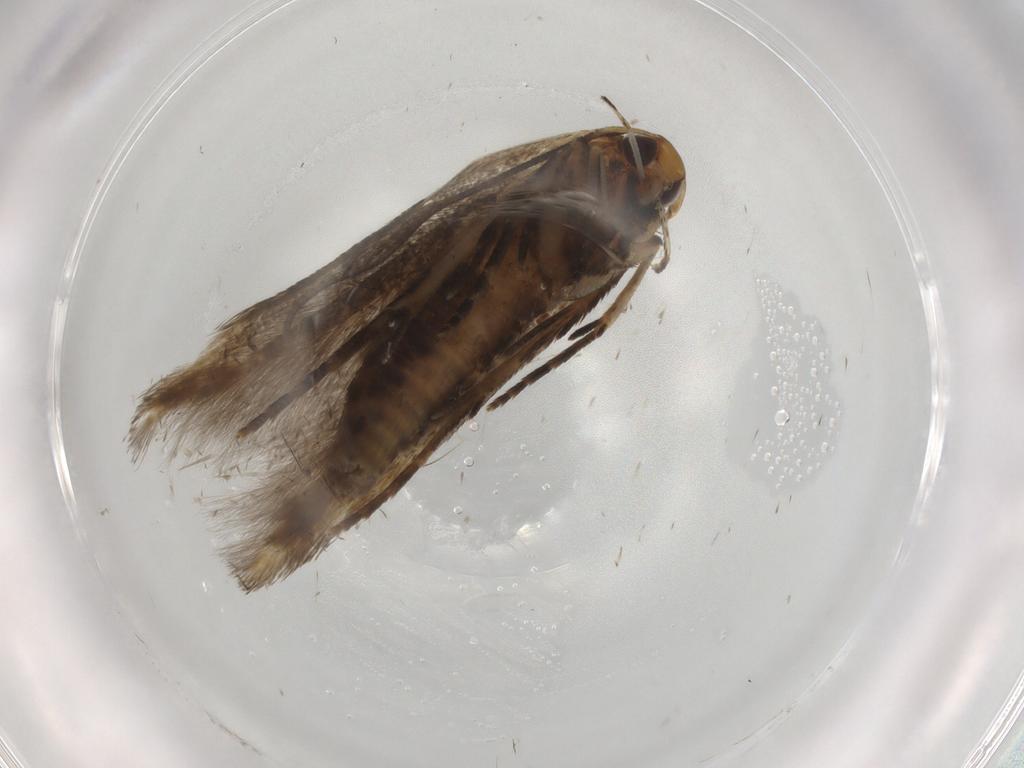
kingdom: Animalia
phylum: Arthropoda
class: Insecta
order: Lepidoptera
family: Cosmopterigidae
